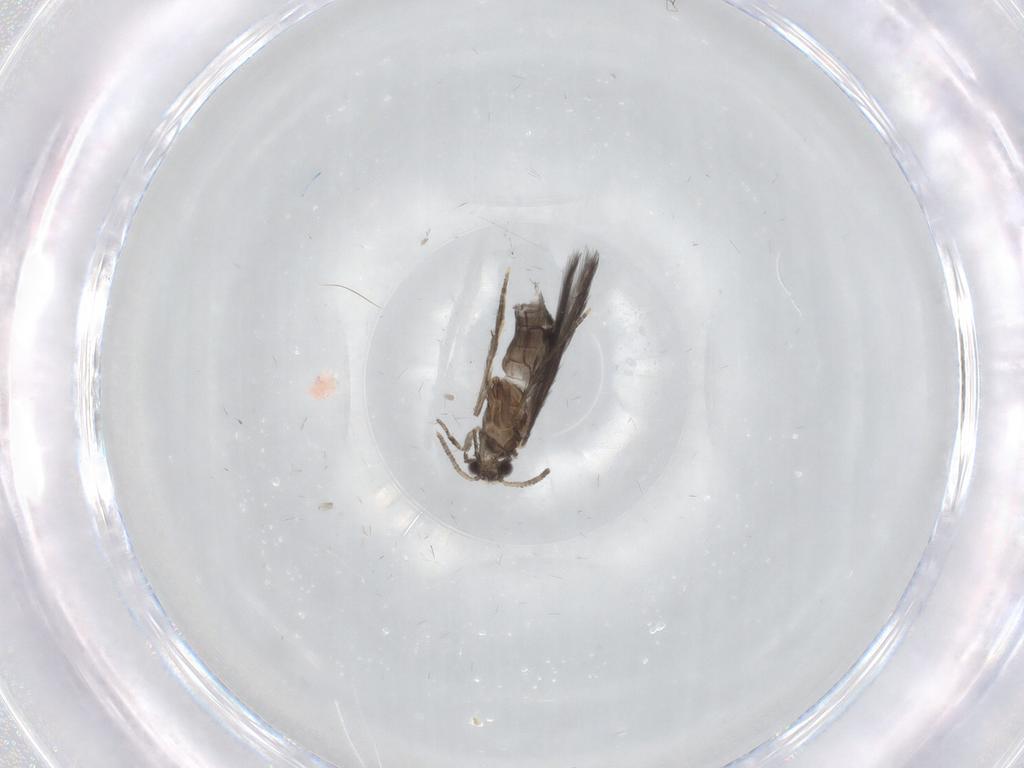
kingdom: Animalia
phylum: Arthropoda
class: Insecta
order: Trichoptera
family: Hydroptilidae
